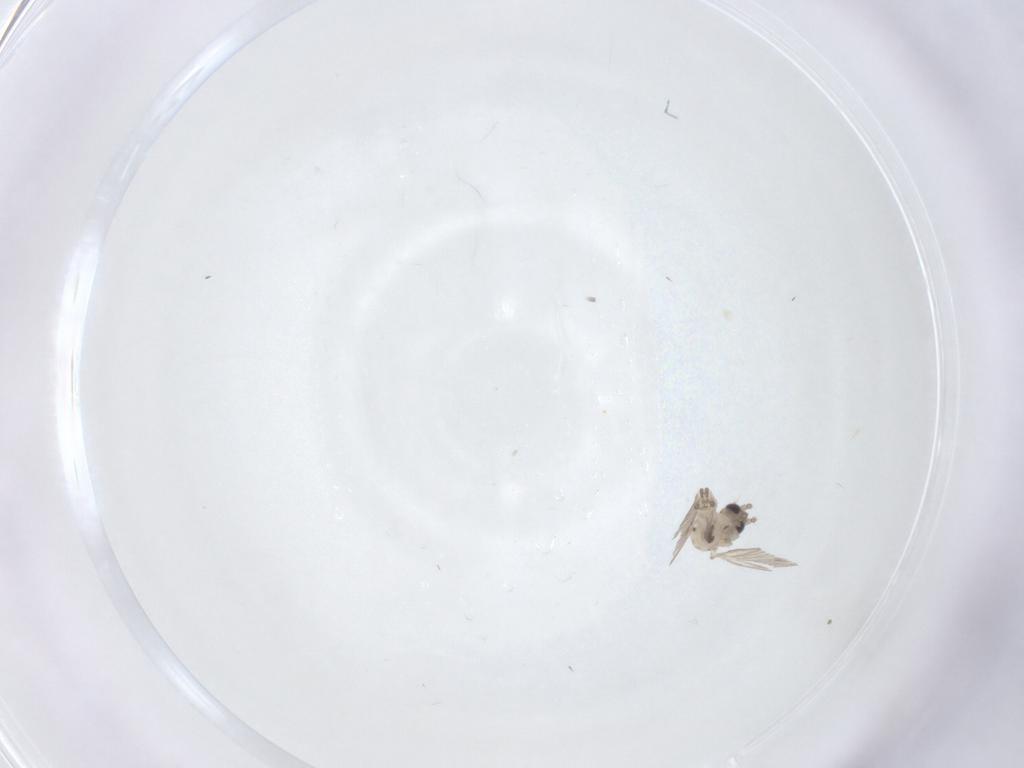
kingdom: Animalia
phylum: Arthropoda
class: Insecta
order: Diptera
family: Psychodidae
